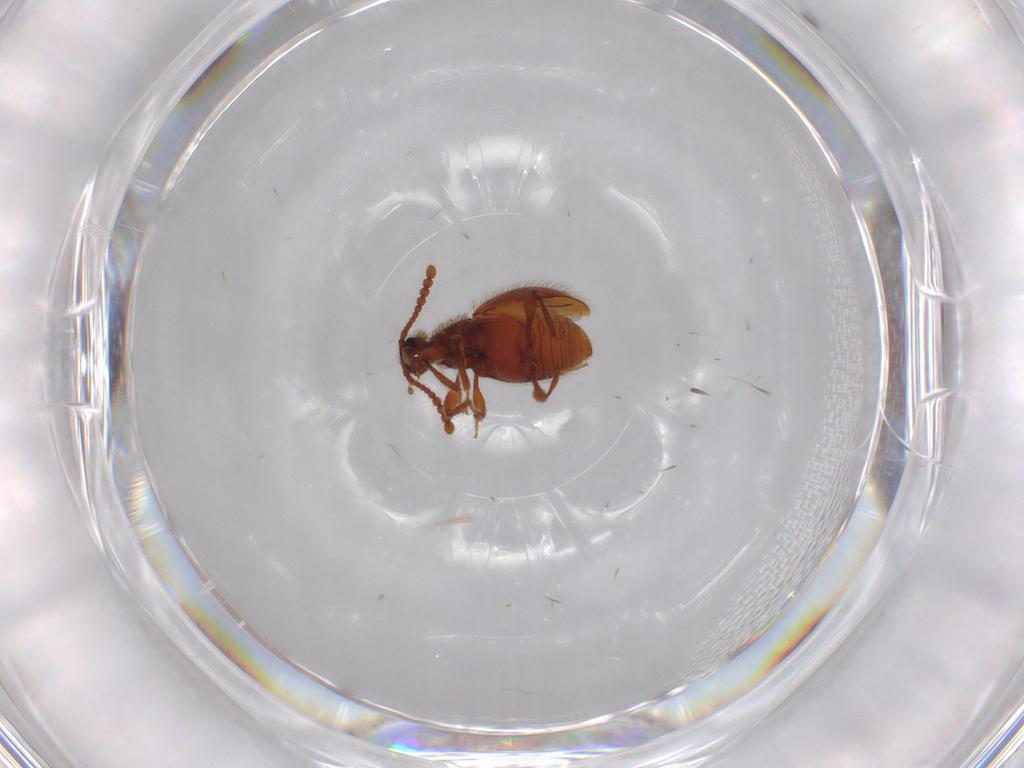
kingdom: Animalia
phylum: Arthropoda
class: Insecta
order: Coleoptera
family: Staphylinidae
